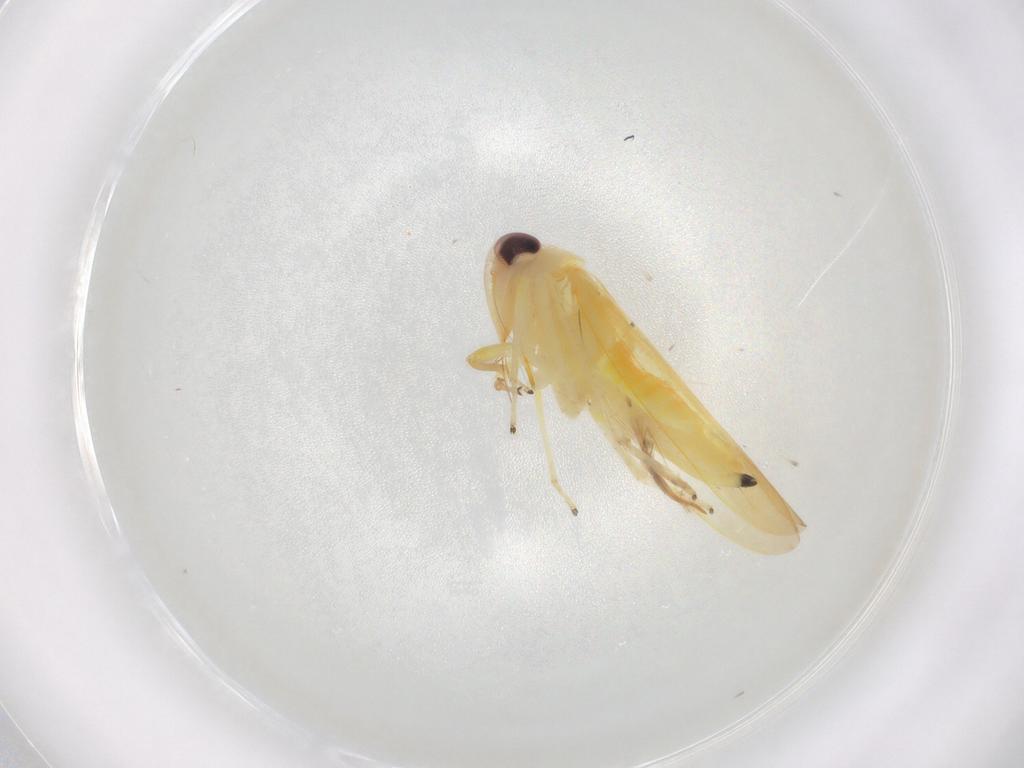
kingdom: Animalia
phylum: Arthropoda
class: Insecta
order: Hemiptera
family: Cicadellidae
